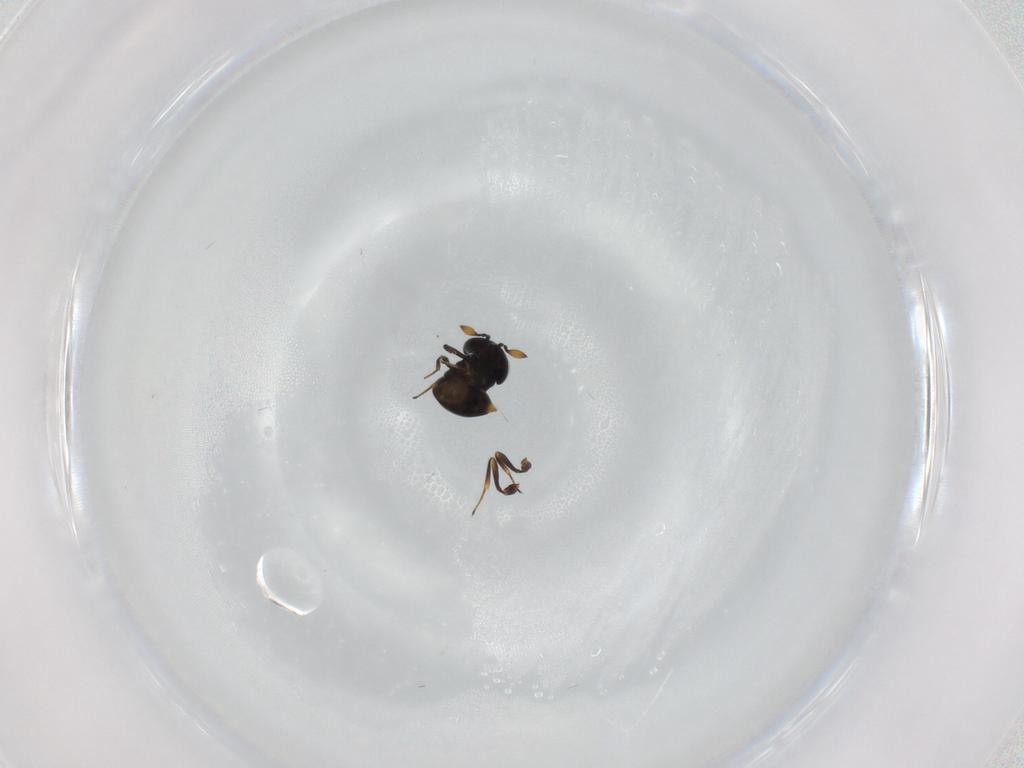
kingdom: Animalia
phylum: Arthropoda
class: Insecta
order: Hymenoptera
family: Scelionidae
